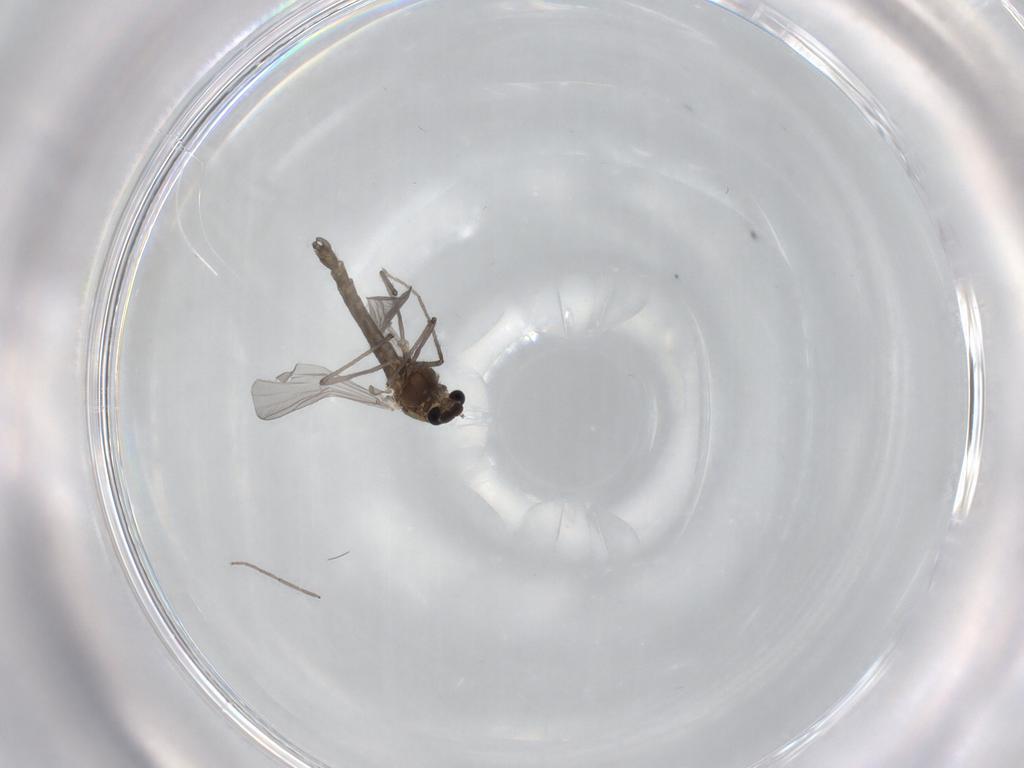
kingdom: Animalia
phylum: Arthropoda
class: Insecta
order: Diptera
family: Chironomidae
